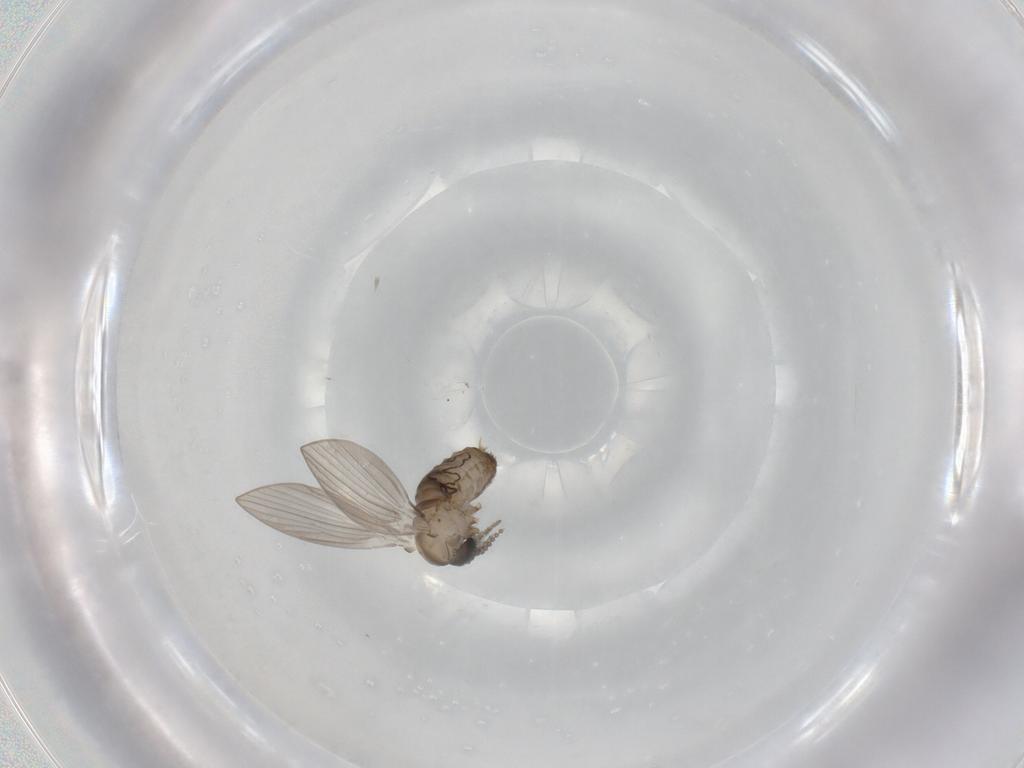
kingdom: Animalia
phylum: Arthropoda
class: Insecta
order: Diptera
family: Psychodidae
